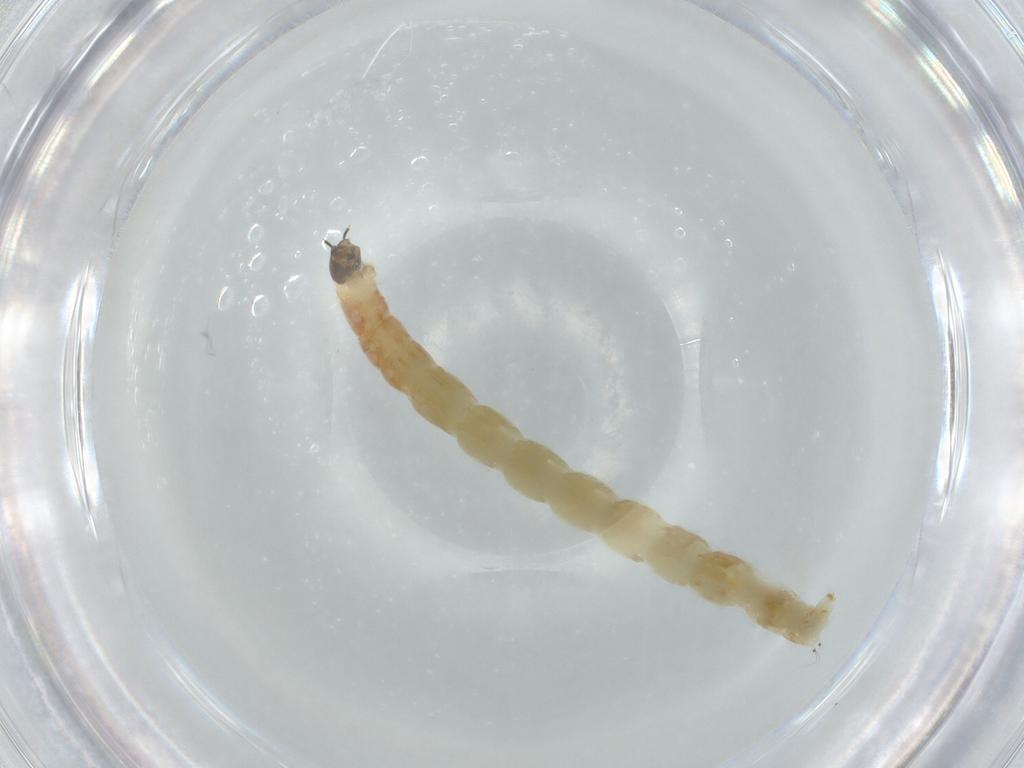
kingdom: Animalia
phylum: Arthropoda
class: Insecta
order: Diptera
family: Chironomidae
